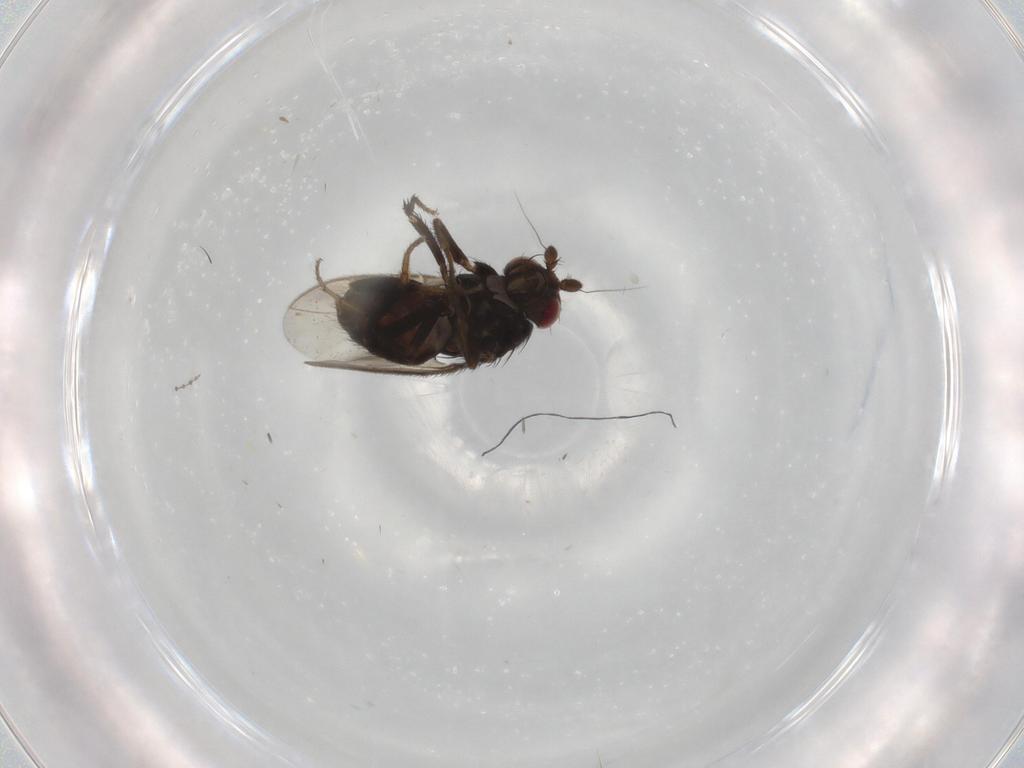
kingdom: Animalia
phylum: Arthropoda
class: Insecta
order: Diptera
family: Sphaeroceridae
